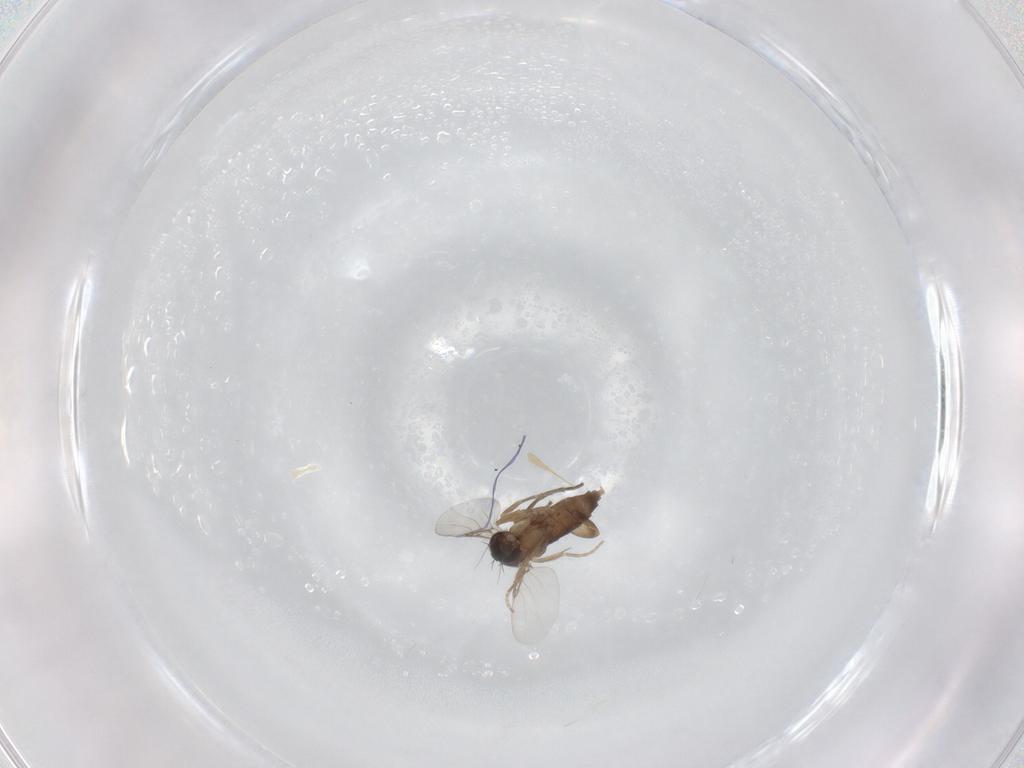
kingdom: Animalia
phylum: Arthropoda
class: Insecta
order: Diptera
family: Phoridae
